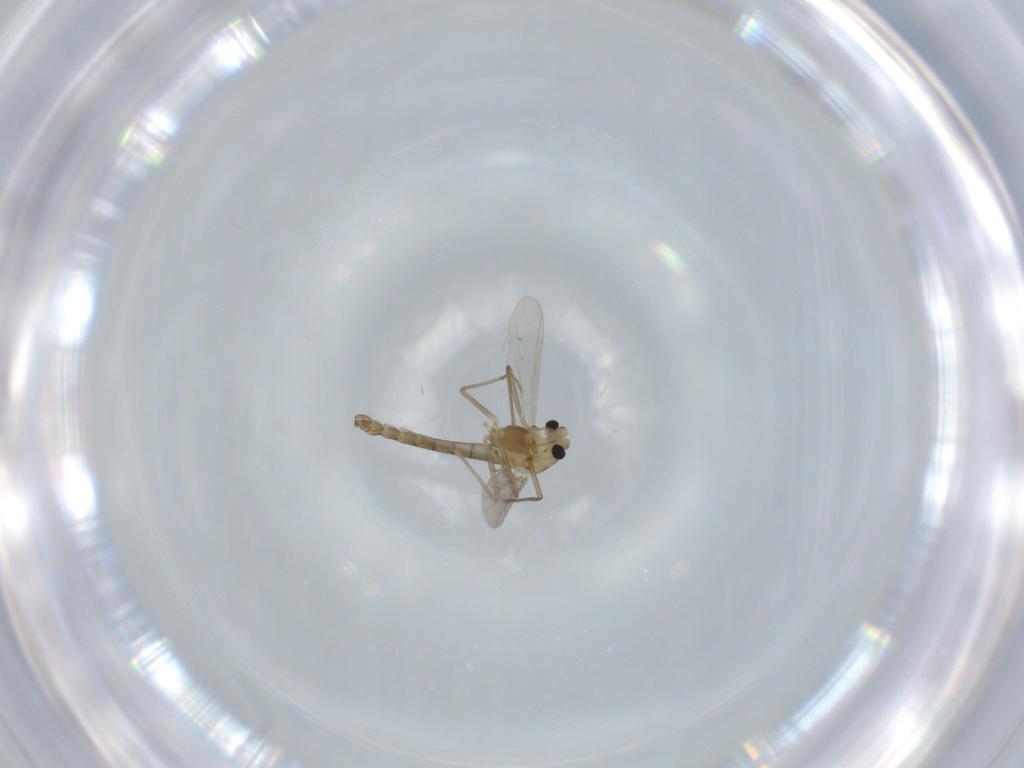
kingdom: Animalia
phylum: Arthropoda
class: Insecta
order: Diptera
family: Chironomidae
